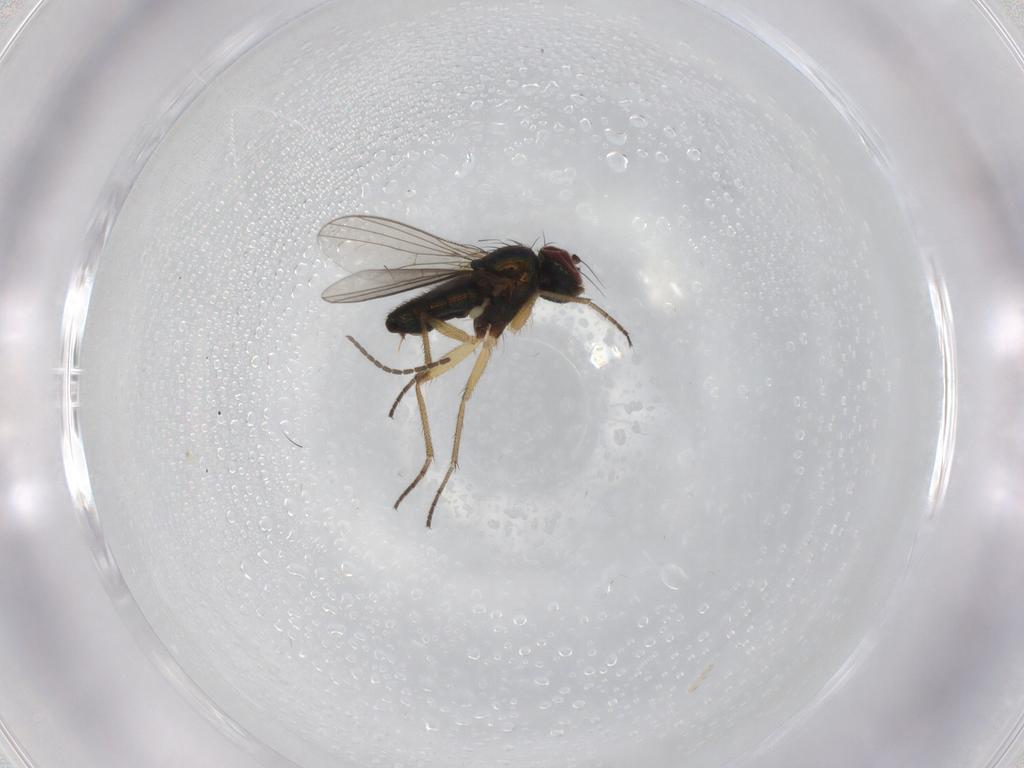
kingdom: Animalia
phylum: Arthropoda
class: Insecta
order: Diptera
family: Dolichopodidae
